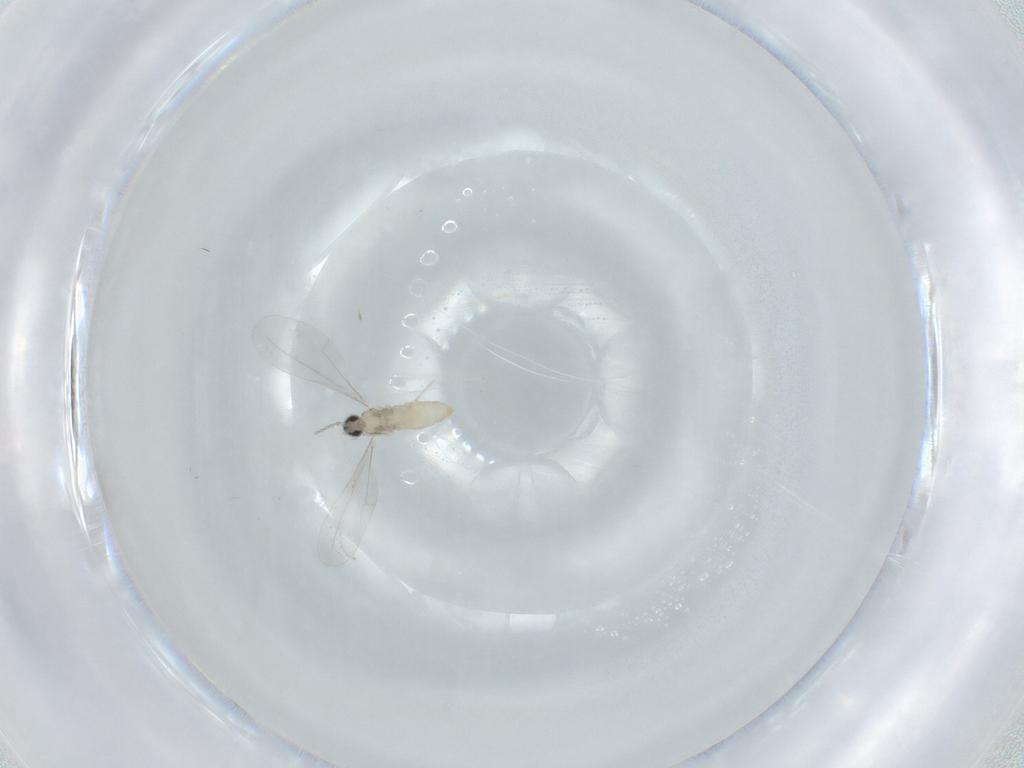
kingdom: Animalia
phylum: Arthropoda
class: Insecta
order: Diptera
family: Cecidomyiidae
